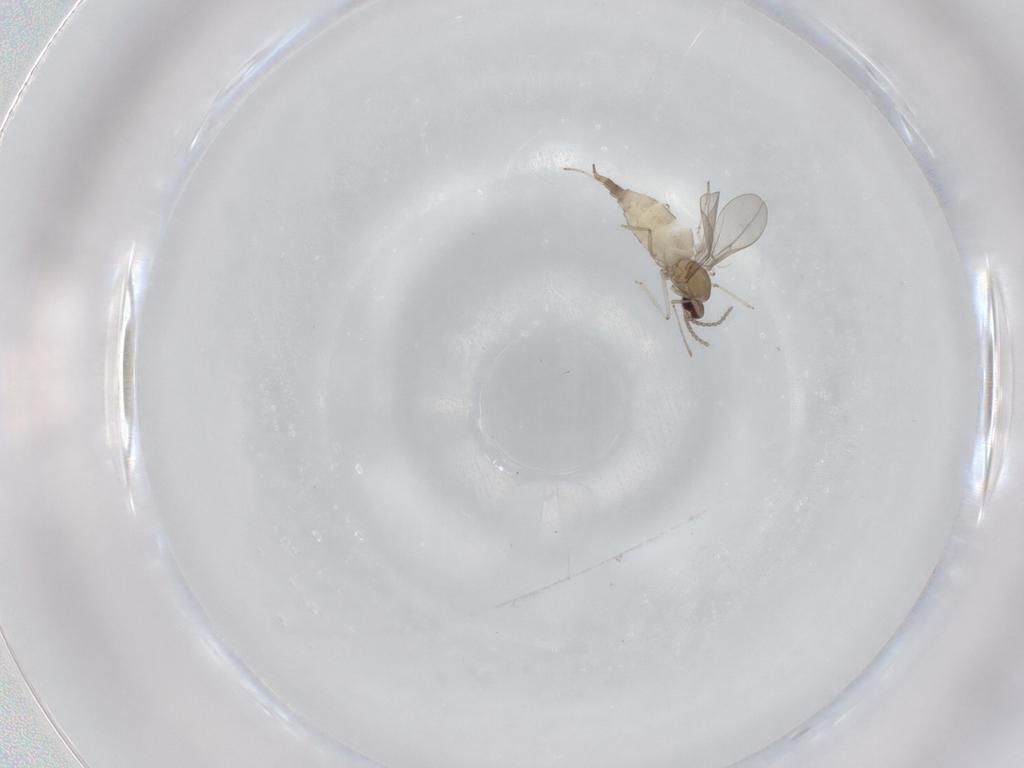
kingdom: Animalia
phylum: Arthropoda
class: Insecta
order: Diptera
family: Cecidomyiidae
